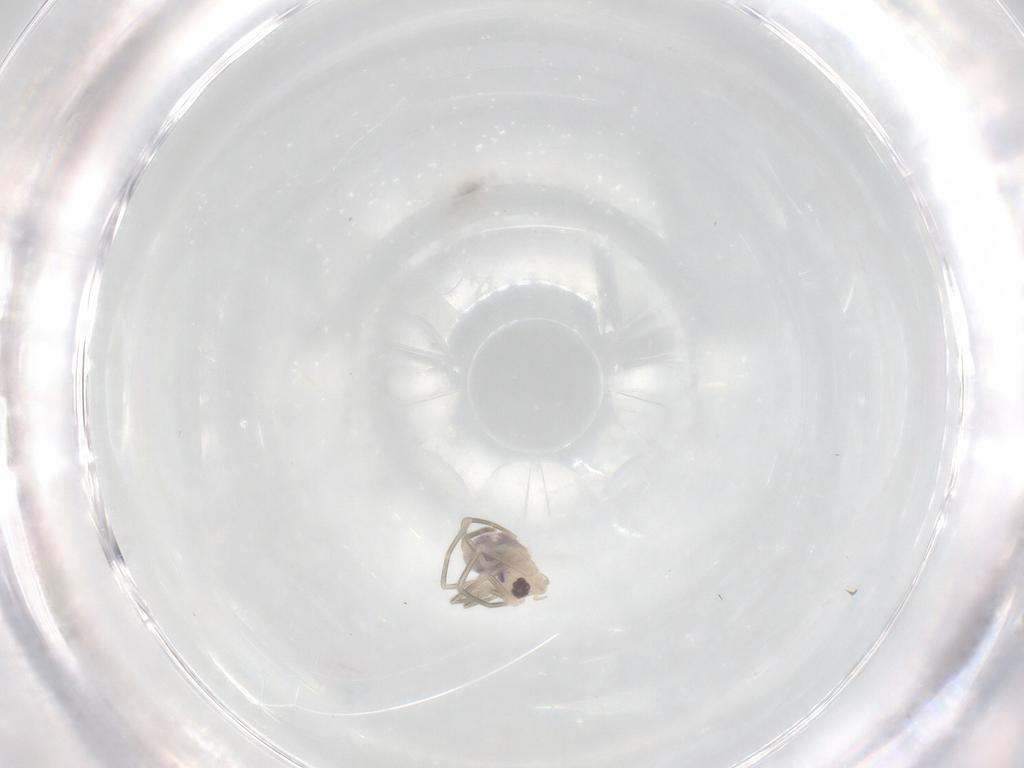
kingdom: Animalia
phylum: Arthropoda
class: Arachnida
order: Araneae
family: Pholcidae
